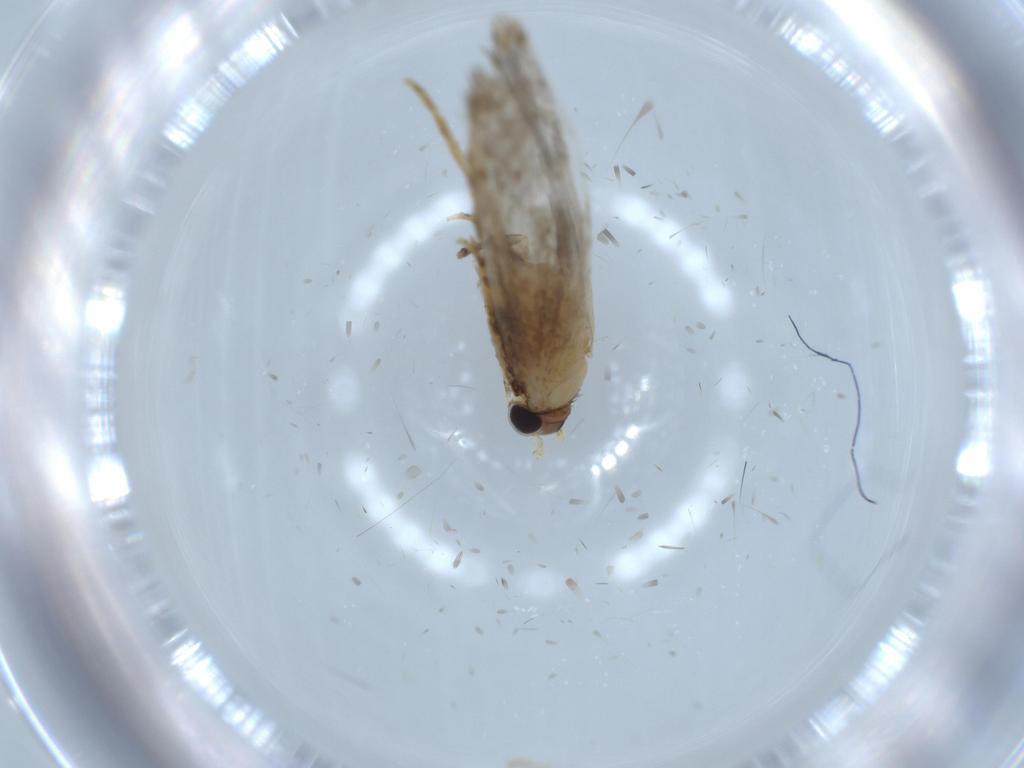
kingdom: Animalia
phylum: Arthropoda
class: Insecta
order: Lepidoptera
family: Tineidae
